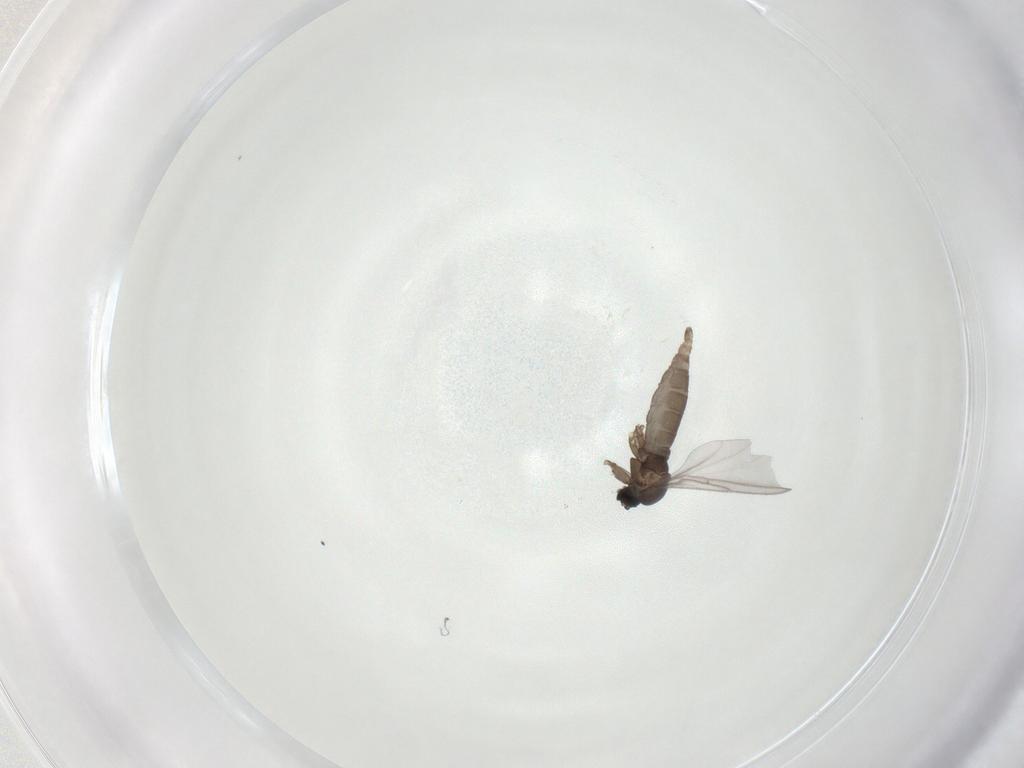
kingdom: Animalia
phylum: Arthropoda
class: Insecta
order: Diptera
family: Sciaridae
